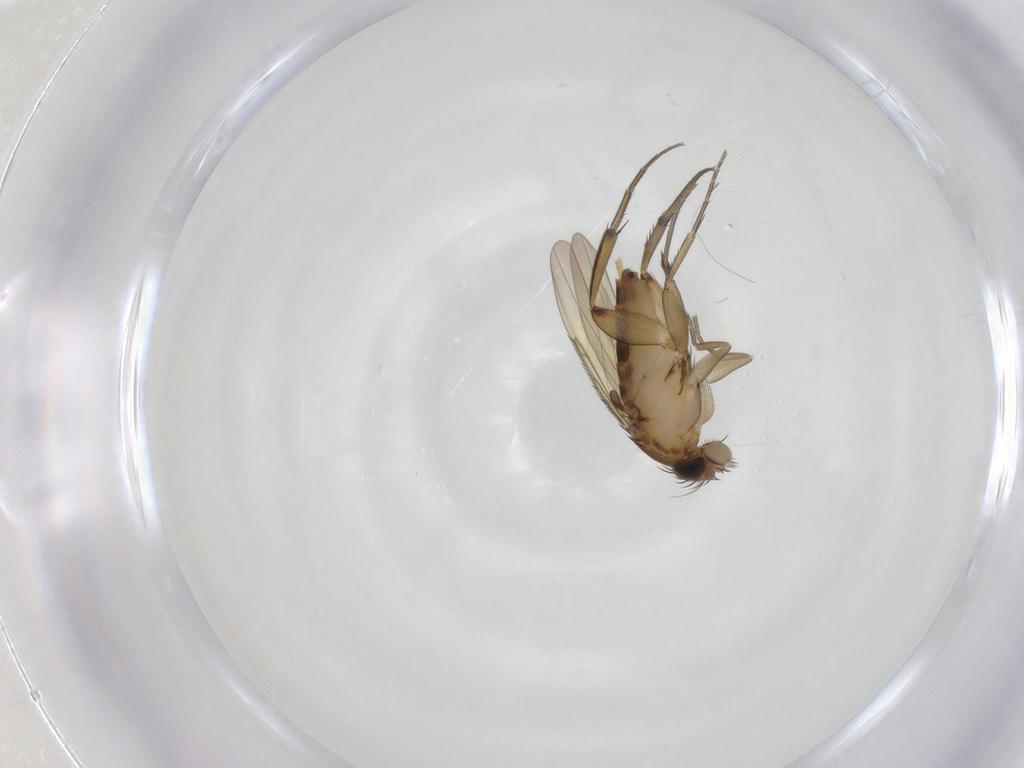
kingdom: Animalia
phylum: Arthropoda
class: Insecta
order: Diptera
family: Phoridae
